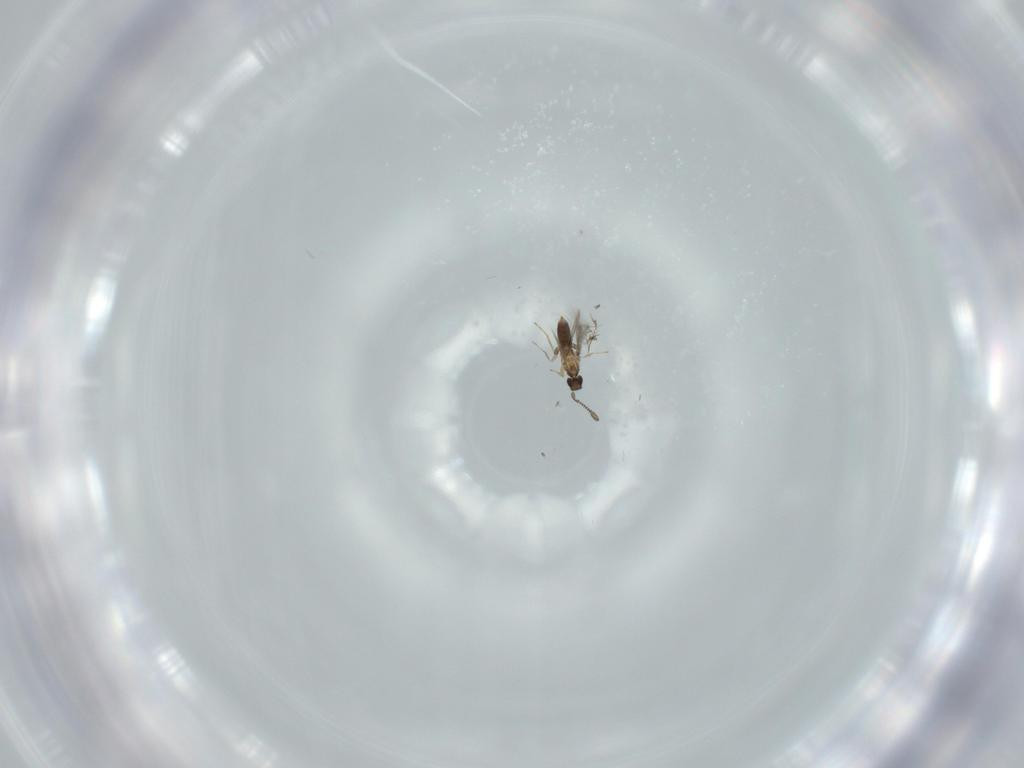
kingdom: Animalia
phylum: Arthropoda
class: Insecta
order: Hymenoptera
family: Mymaridae
